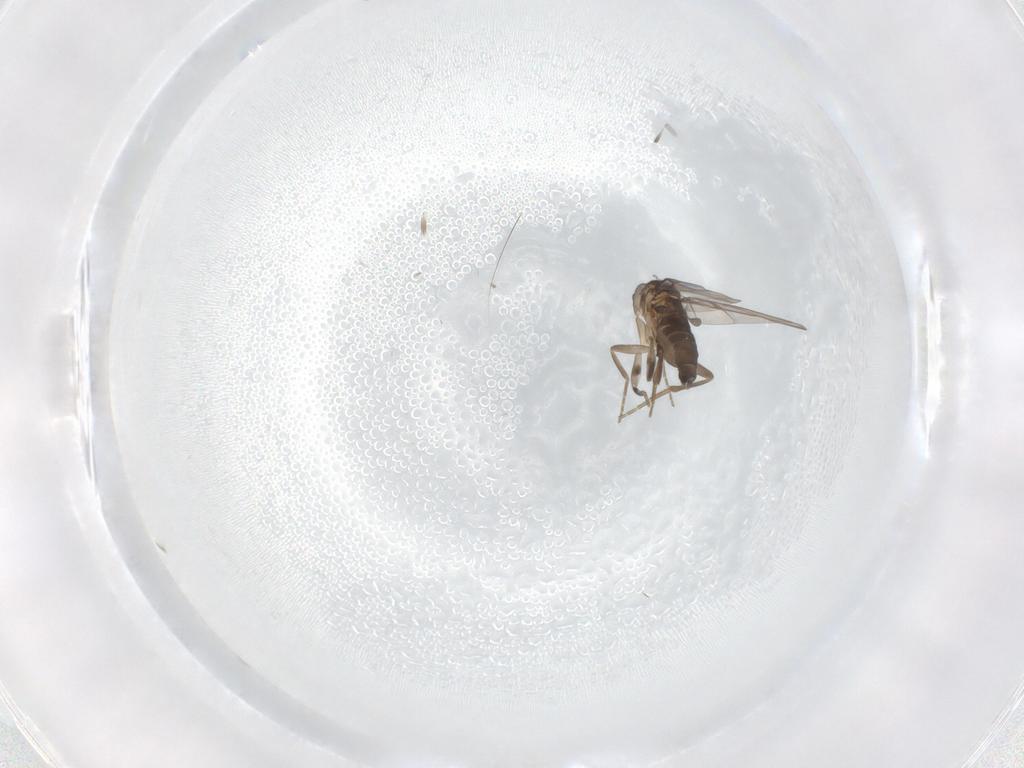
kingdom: Animalia
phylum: Arthropoda
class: Insecta
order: Diptera
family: Phoridae
